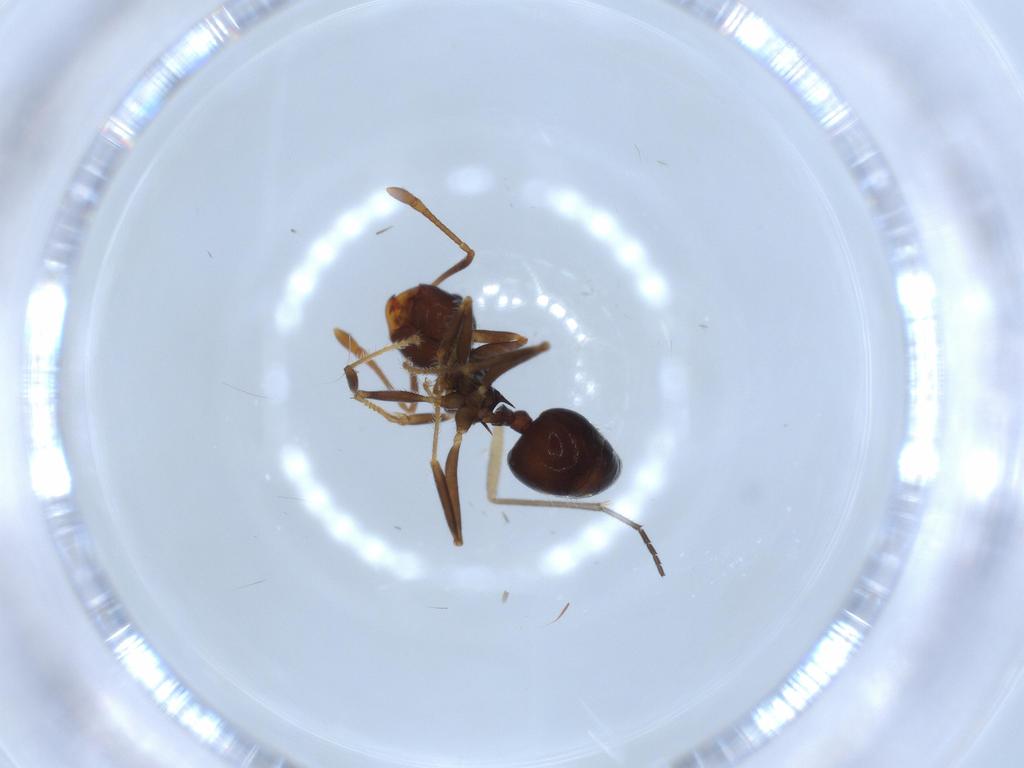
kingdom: Animalia
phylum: Arthropoda
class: Insecta
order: Hymenoptera
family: Formicidae
